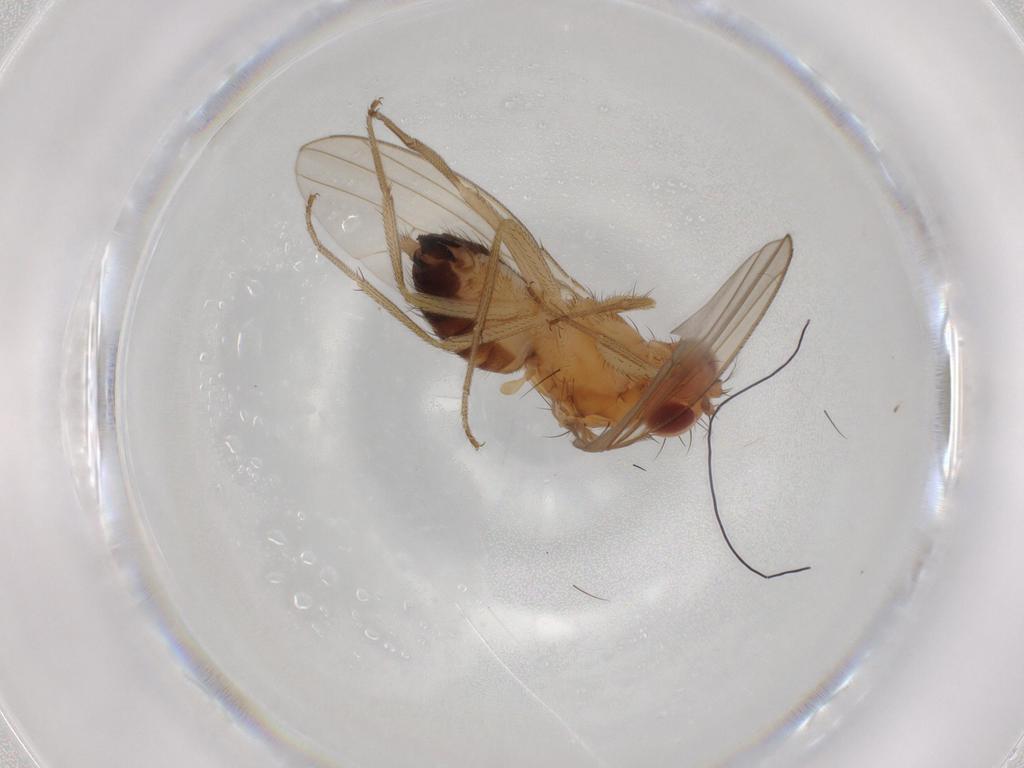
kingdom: Animalia
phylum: Arthropoda
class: Insecta
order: Diptera
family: Drosophilidae
